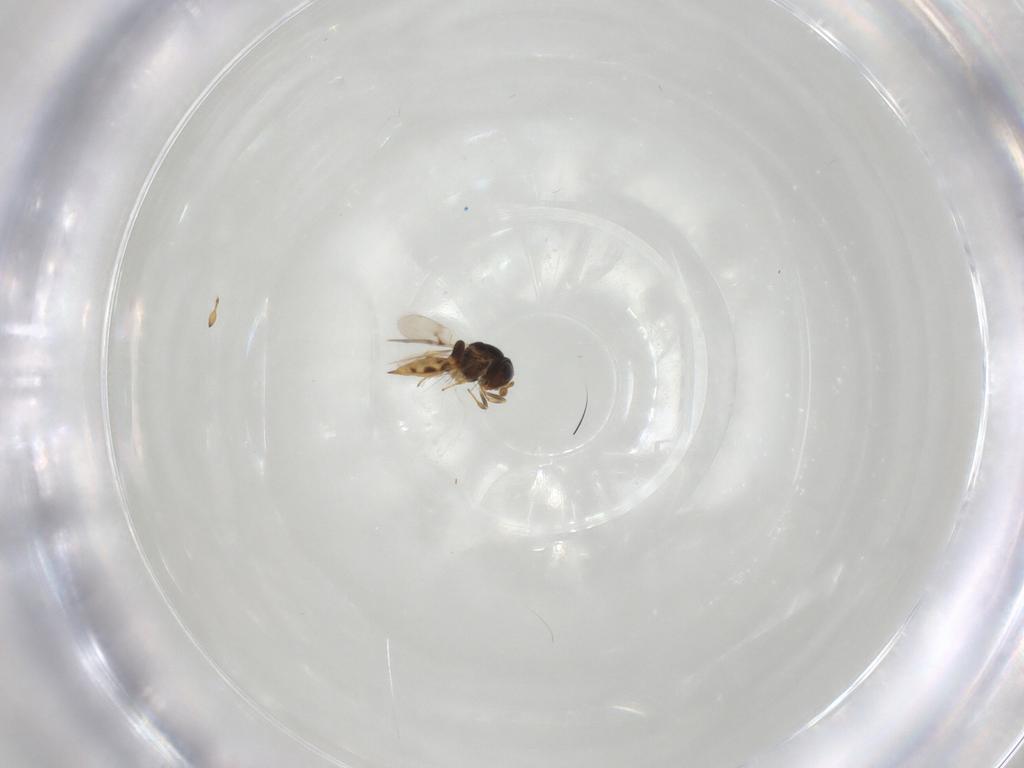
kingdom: Animalia
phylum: Arthropoda
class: Insecta
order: Hymenoptera
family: Scelionidae
